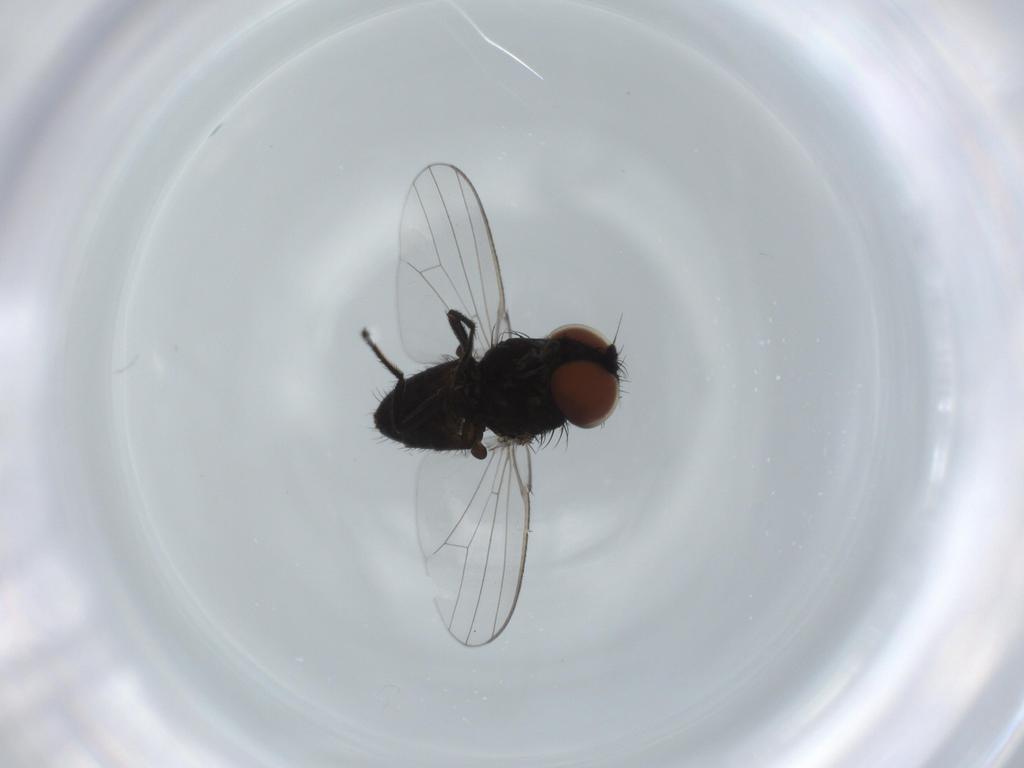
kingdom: Animalia
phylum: Arthropoda
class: Insecta
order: Diptera
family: Milichiidae
